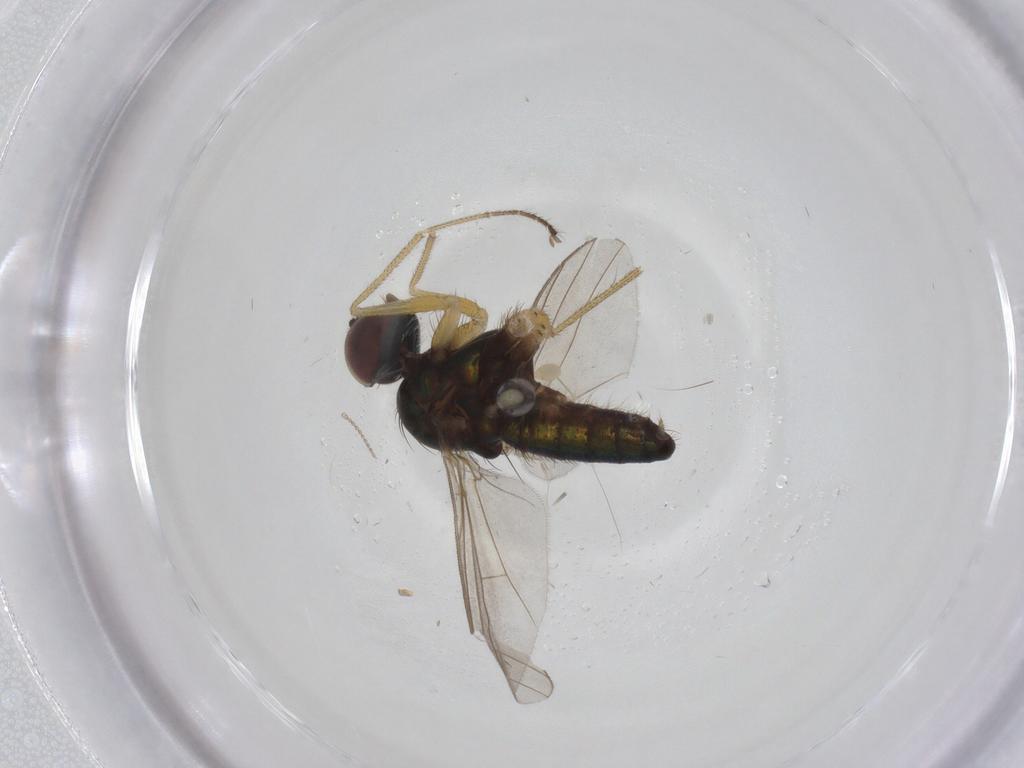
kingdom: Animalia
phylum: Arthropoda
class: Insecta
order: Diptera
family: Dolichopodidae
